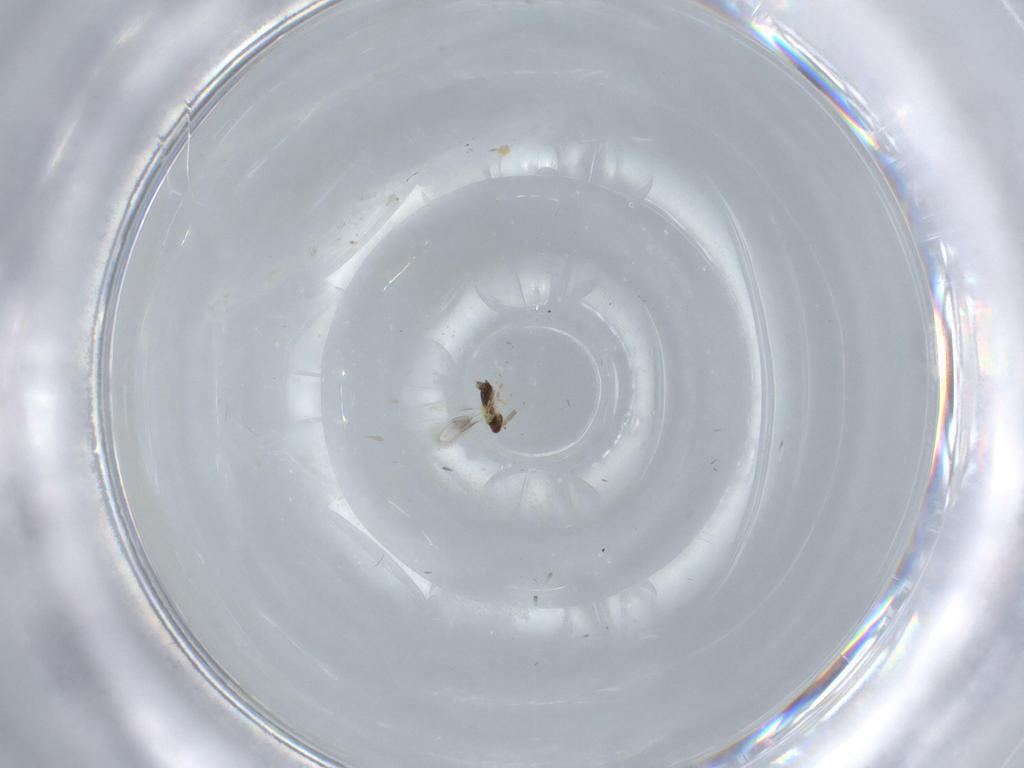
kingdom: Animalia
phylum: Arthropoda
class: Insecta
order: Hymenoptera
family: Aphelinidae
